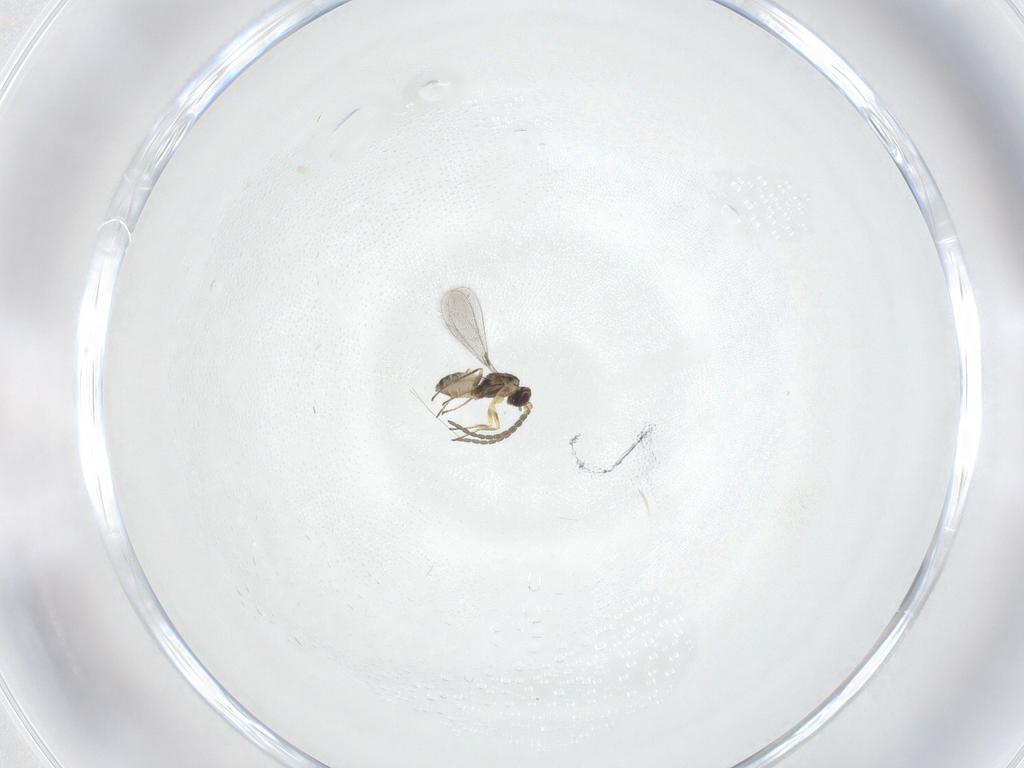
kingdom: Animalia
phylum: Arthropoda
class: Insecta
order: Hymenoptera
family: Mymaridae
